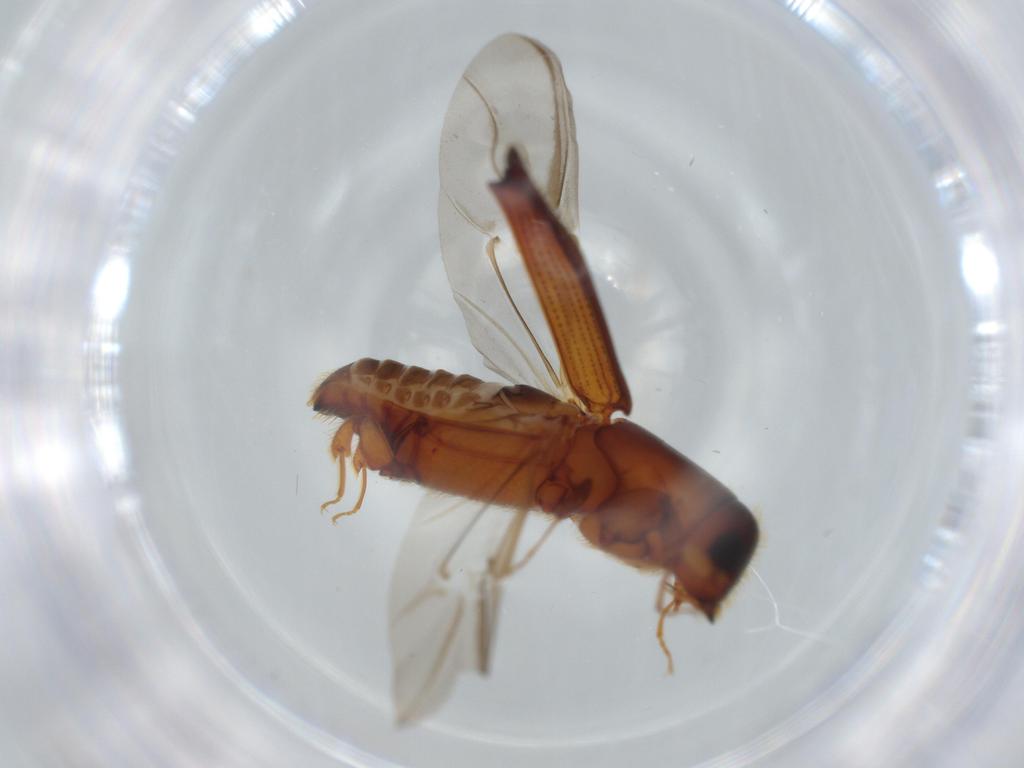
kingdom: Animalia
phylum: Arthropoda
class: Insecta
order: Coleoptera
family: Curculionidae
